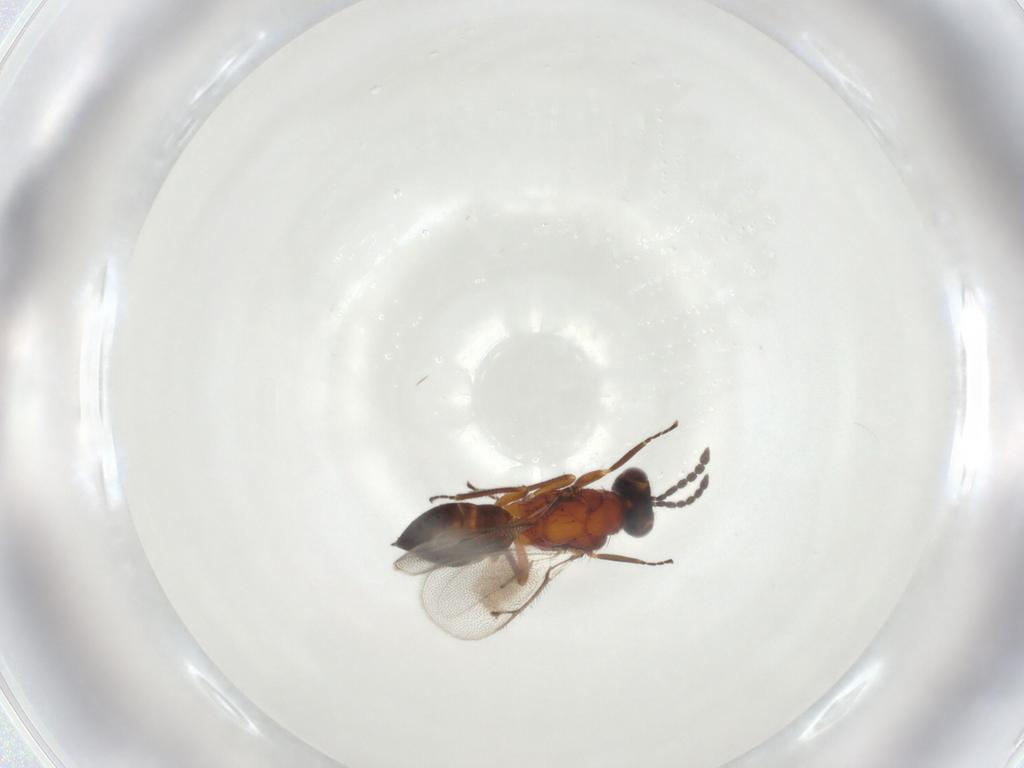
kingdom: Animalia
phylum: Arthropoda
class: Insecta
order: Hymenoptera
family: Eulophidae
